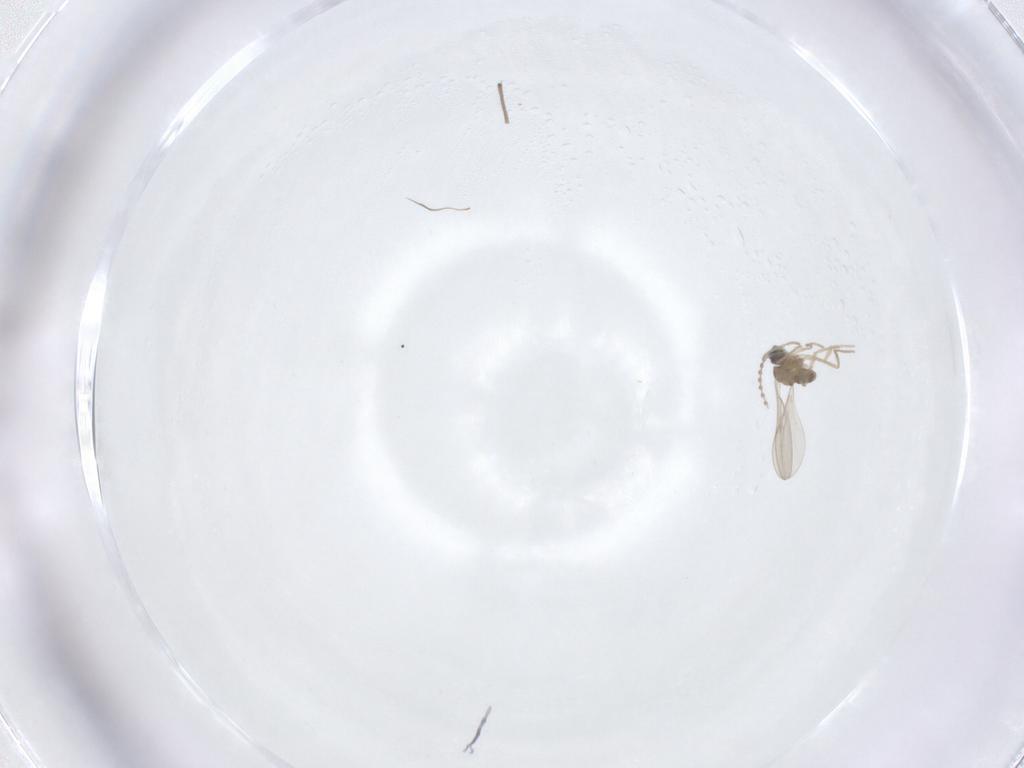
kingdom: Animalia
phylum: Arthropoda
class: Insecta
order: Diptera
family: Cecidomyiidae
